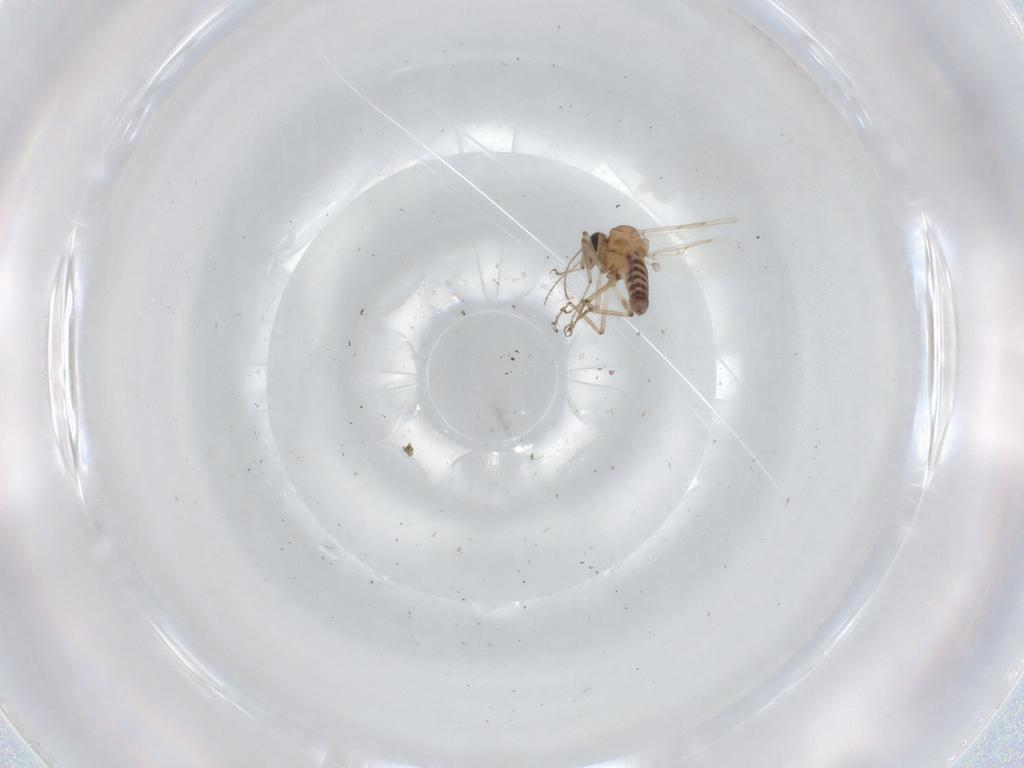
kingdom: Animalia
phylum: Arthropoda
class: Insecta
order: Diptera
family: Ceratopogonidae
